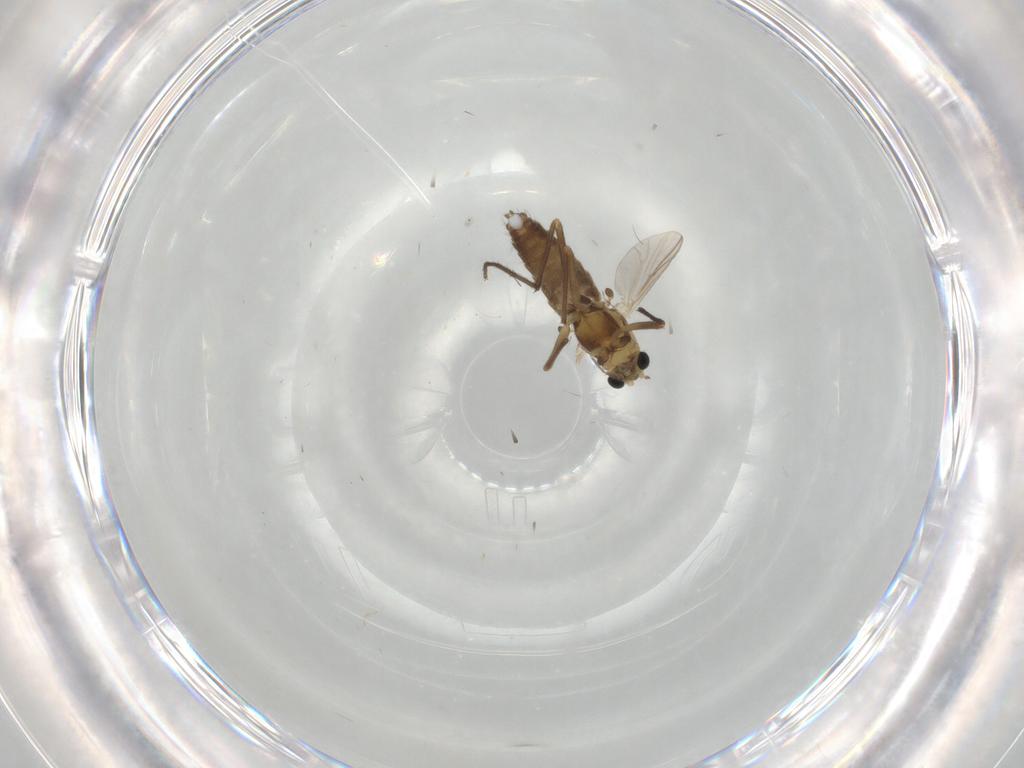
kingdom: Animalia
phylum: Arthropoda
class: Insecta
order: Diptera
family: Chironomidae
